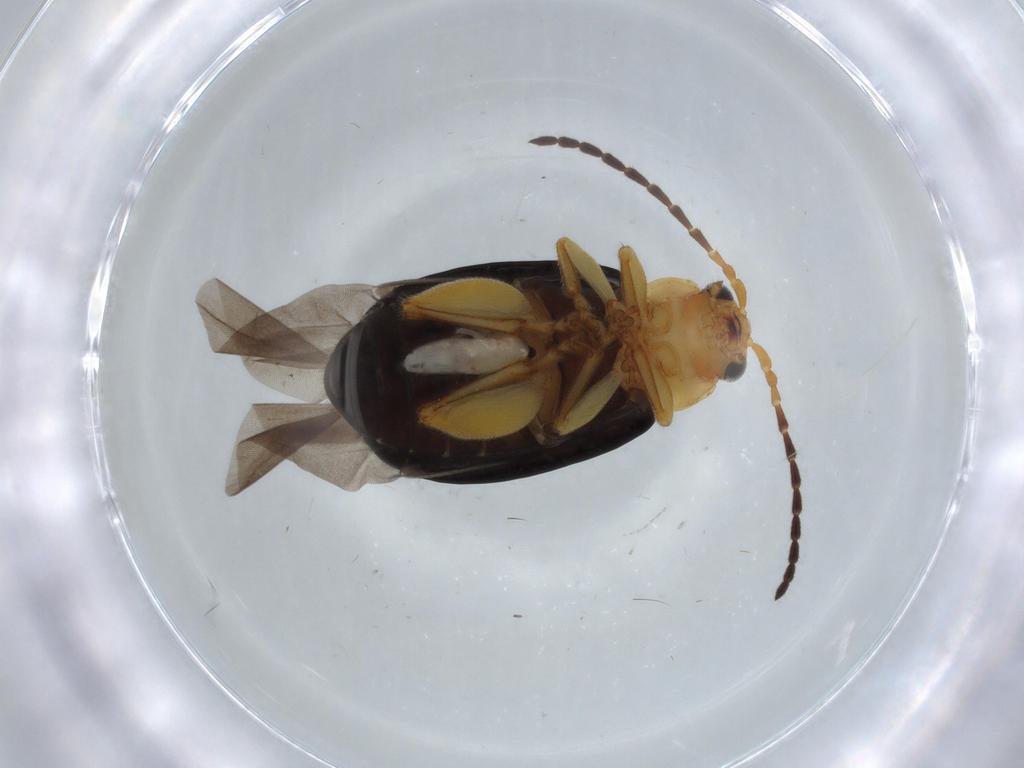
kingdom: Animalia
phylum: Arthropoda
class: Insecta
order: Coleoptera
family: Chrysomelidae
